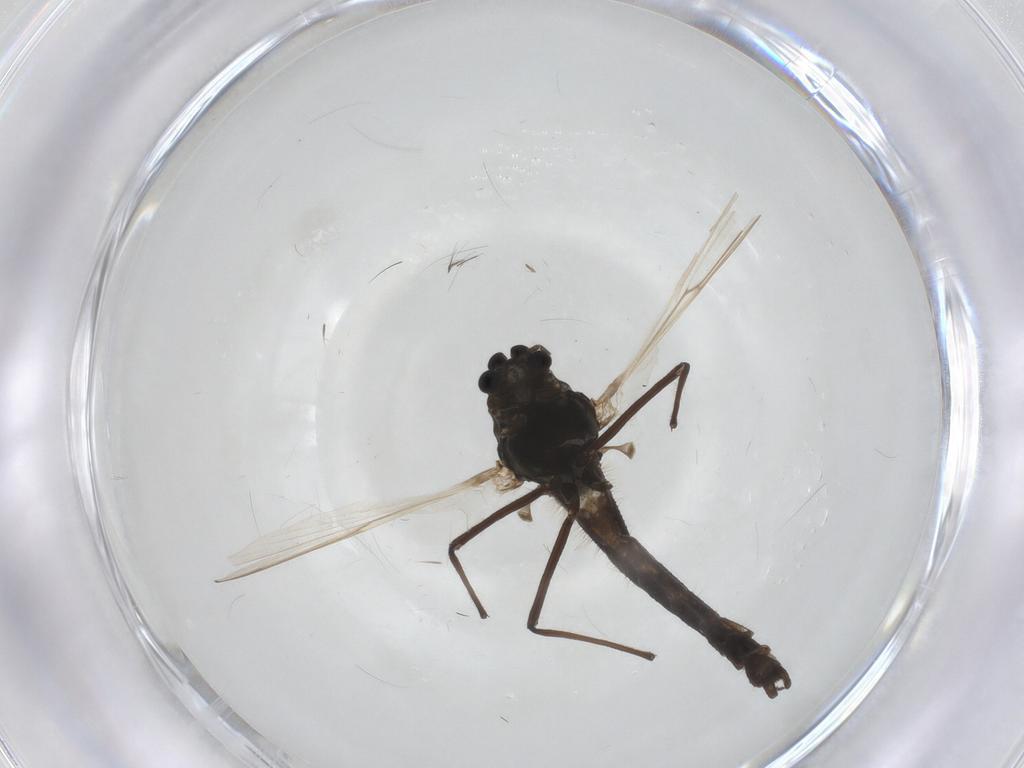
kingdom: Animalia
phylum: Arthropoda
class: Insecta
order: Diptera
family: Chironomidae
